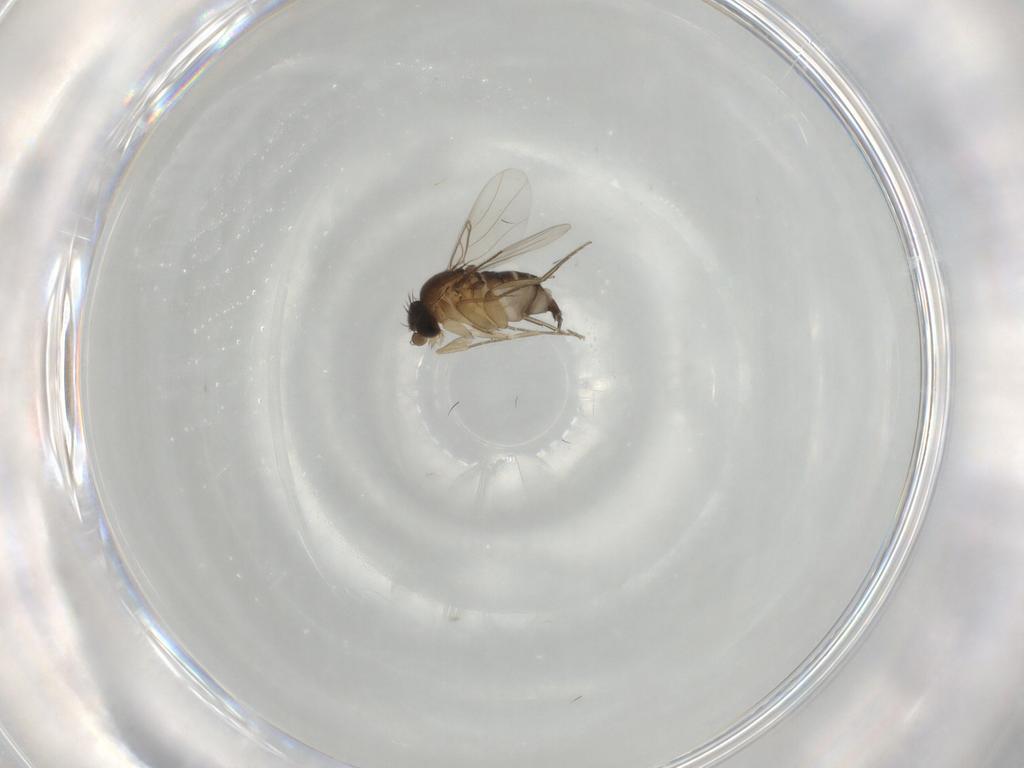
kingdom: Animalia
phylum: Arthropoda
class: Insecta
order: Diptera
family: Phoridae
